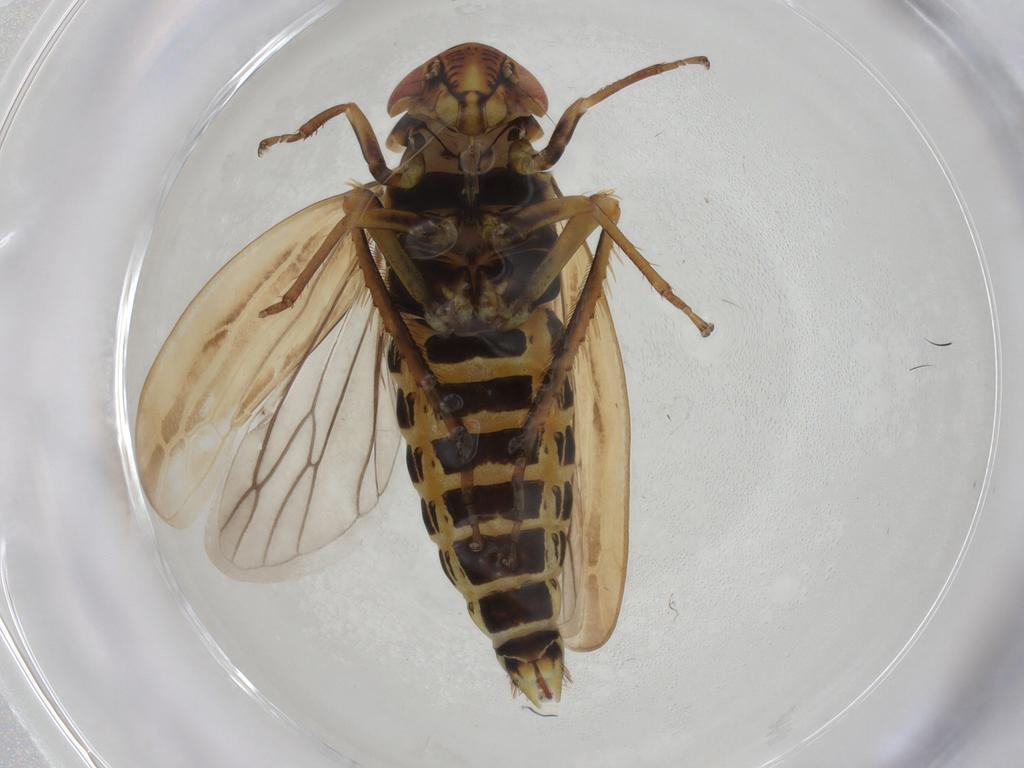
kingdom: Animalia
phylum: Arthropoda
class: Insecta
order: Hemiptera
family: Cicadellidae
